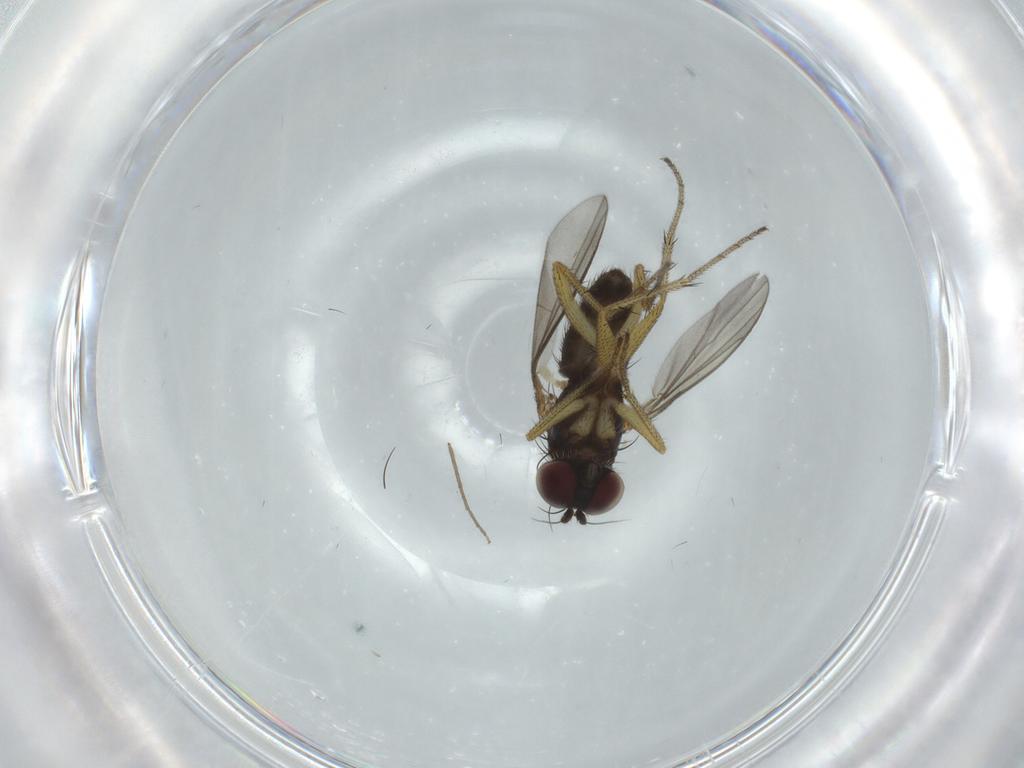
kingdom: Animalia
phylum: Arthropoda
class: Insecta
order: Diptera
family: Dolichopodidae
